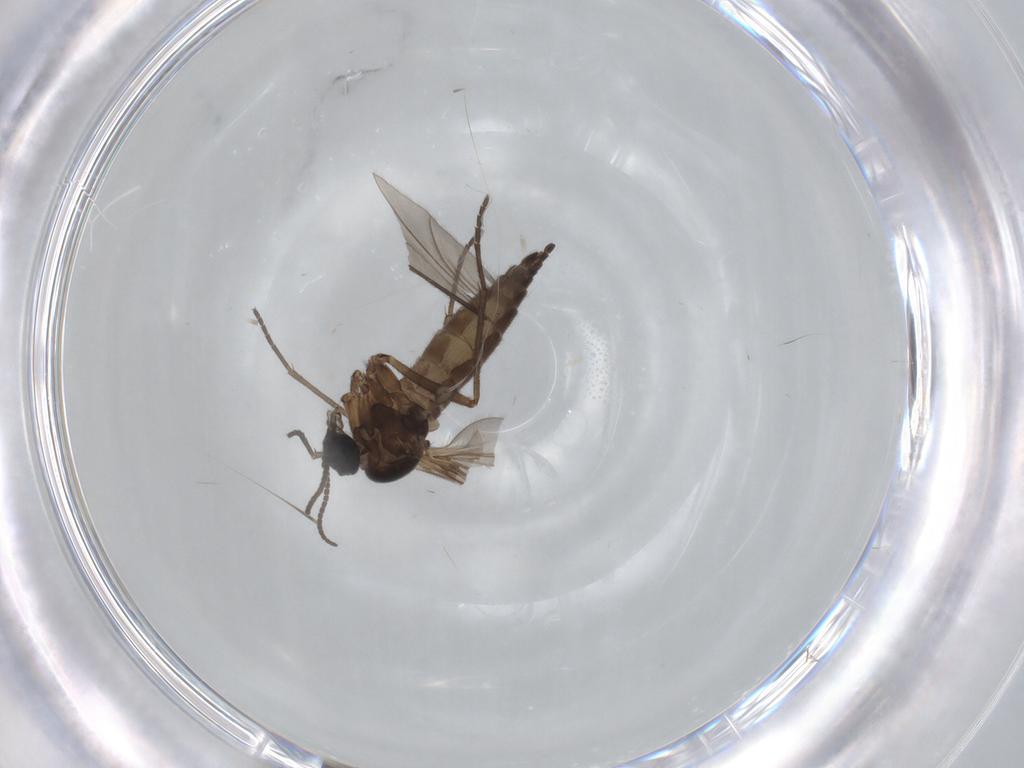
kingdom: Animalia
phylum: Arthropoda
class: Insecta
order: Diptera
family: Sciaridae
